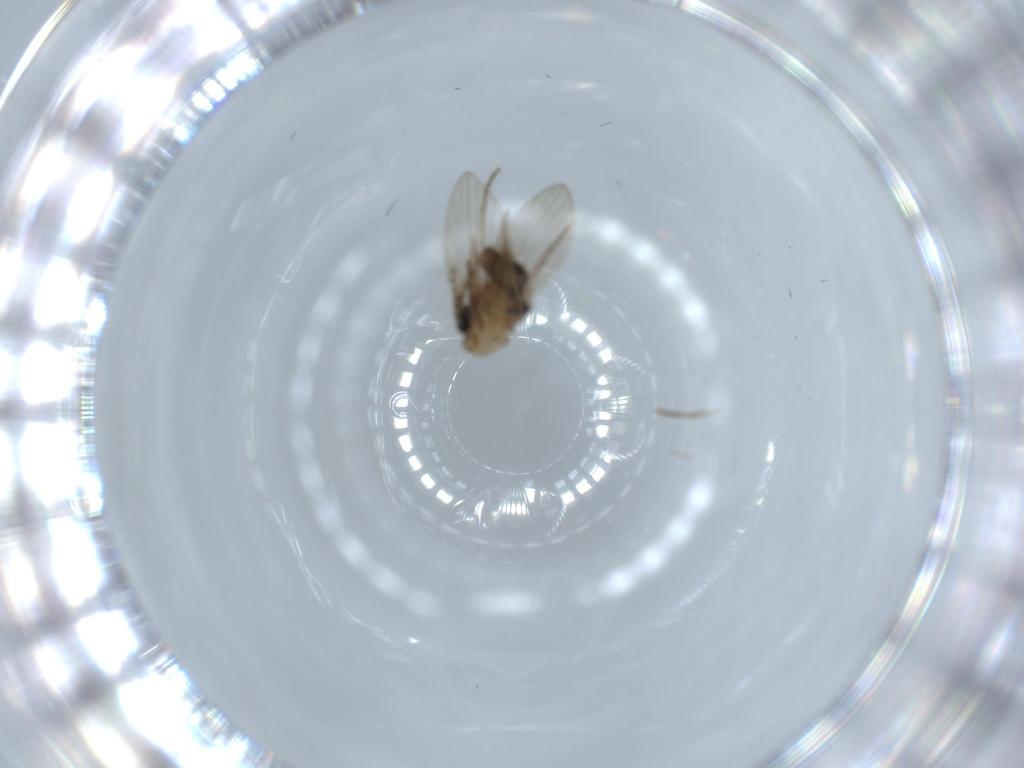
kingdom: Animalia
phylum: Arthropoda
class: Insecta
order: Diptera
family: Psychodidae
